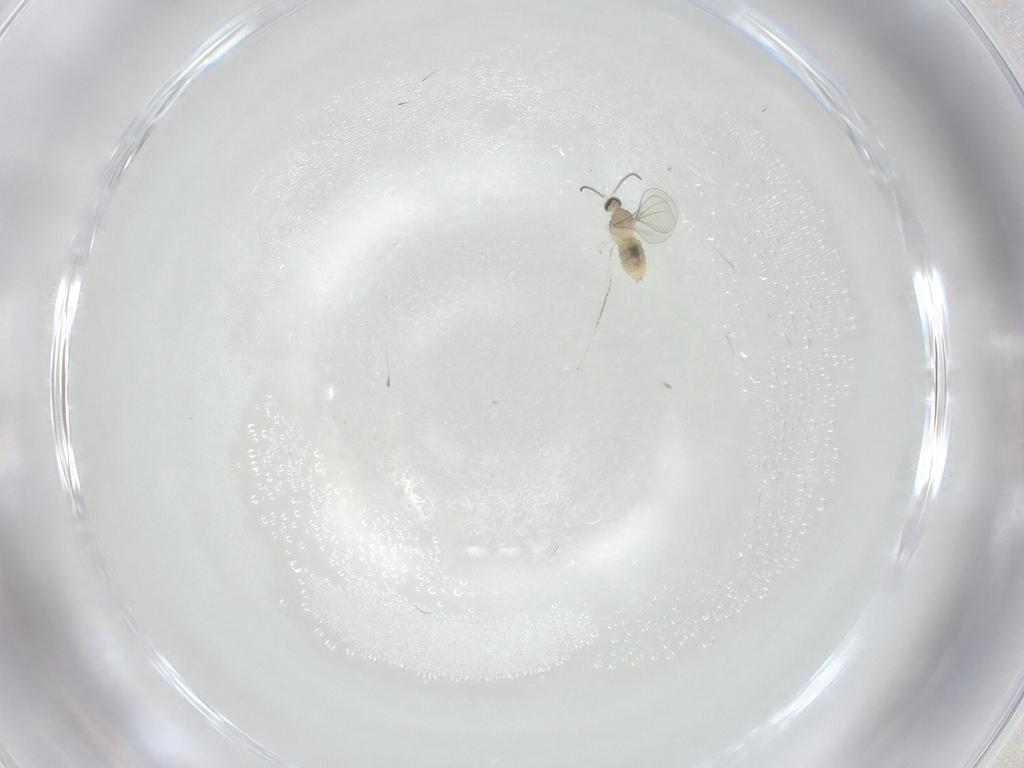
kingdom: Animalia
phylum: Arthropoda
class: Insecta
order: Diptera
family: Cecidomyiidae
